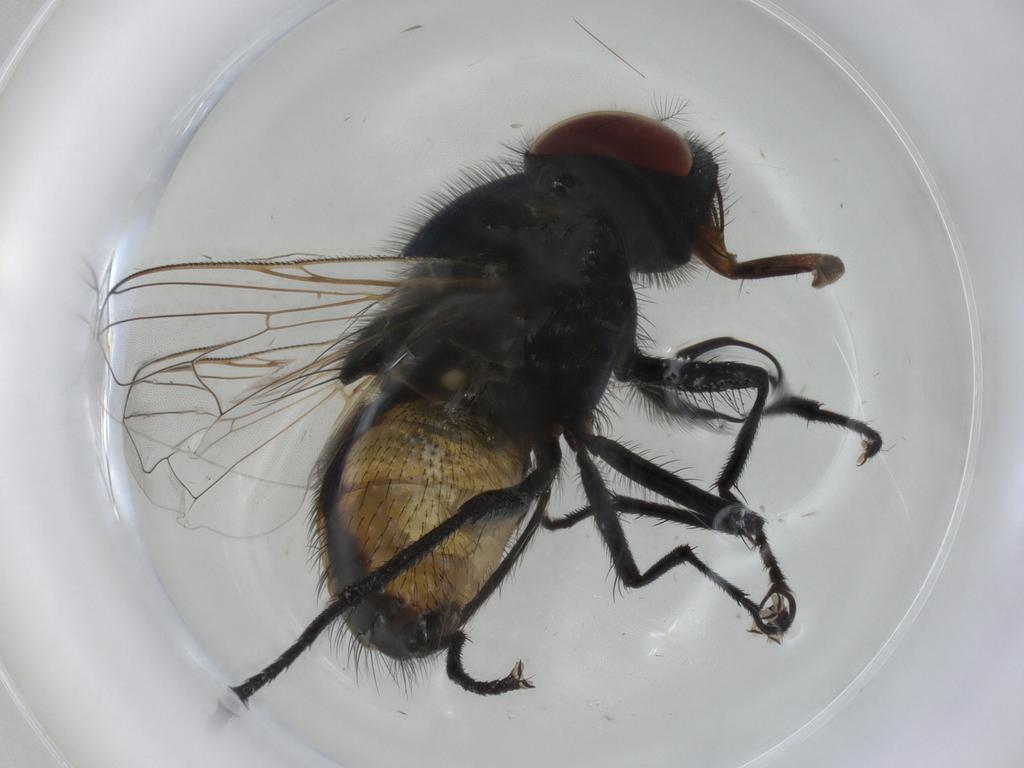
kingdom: Animalia
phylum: Arthropoda
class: Insecta
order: Diptera
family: Muscidae
